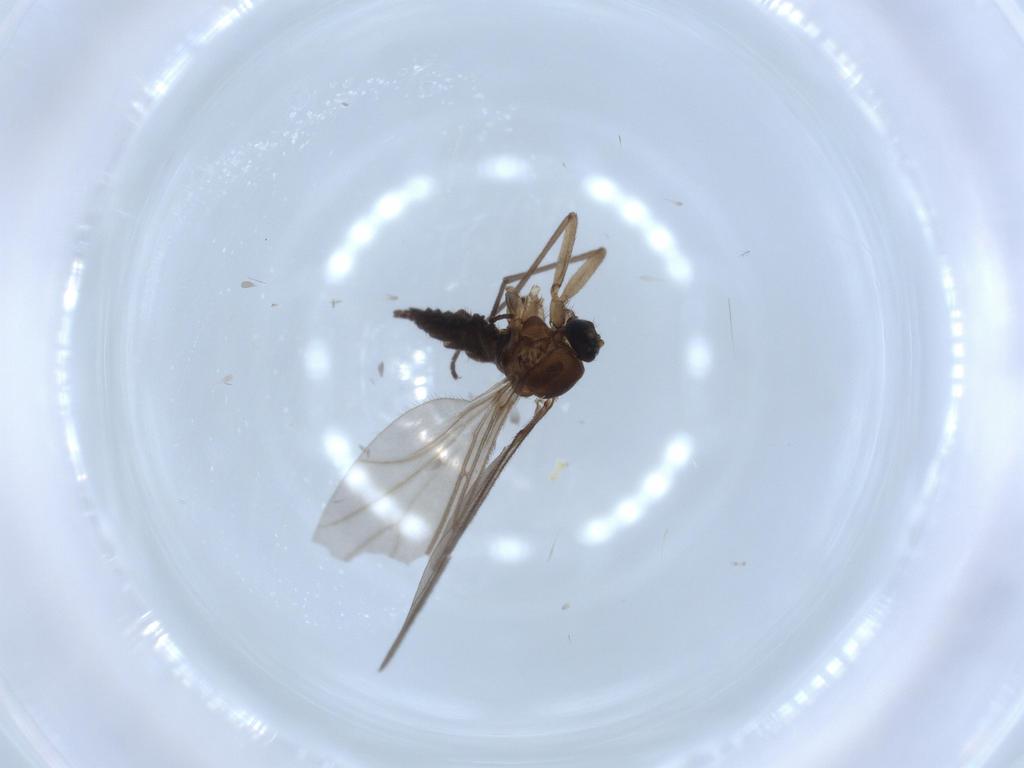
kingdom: Animalia
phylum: Arthropoda
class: Insecta
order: Diptera
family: Sciaridae
